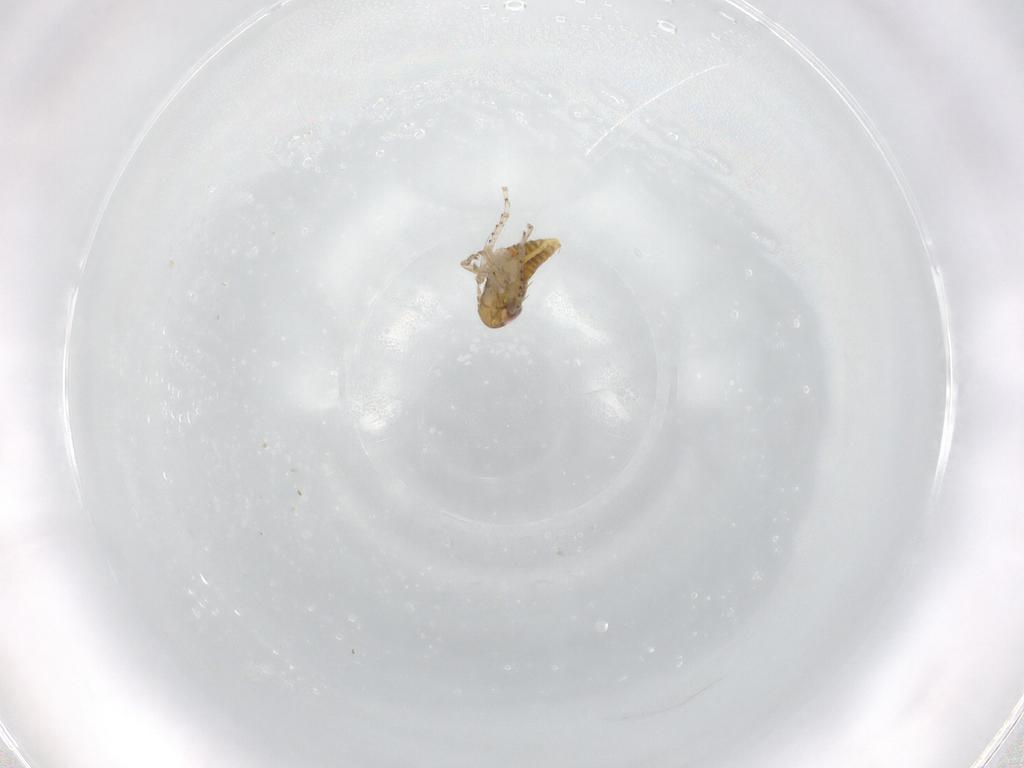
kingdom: Animalia
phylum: Arthropoda
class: Insecta
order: Hemiptera
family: Cicadellidae
